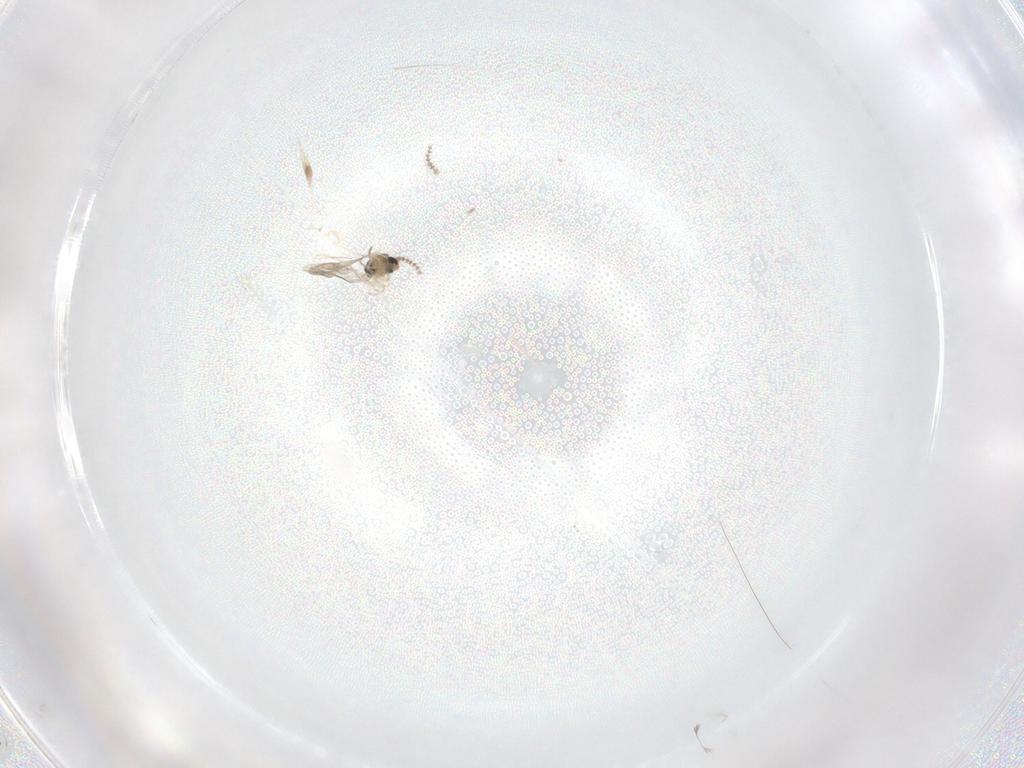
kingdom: Animalia
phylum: Arthropoda
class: Insecta
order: Diptera
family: Cecidomyiidae
